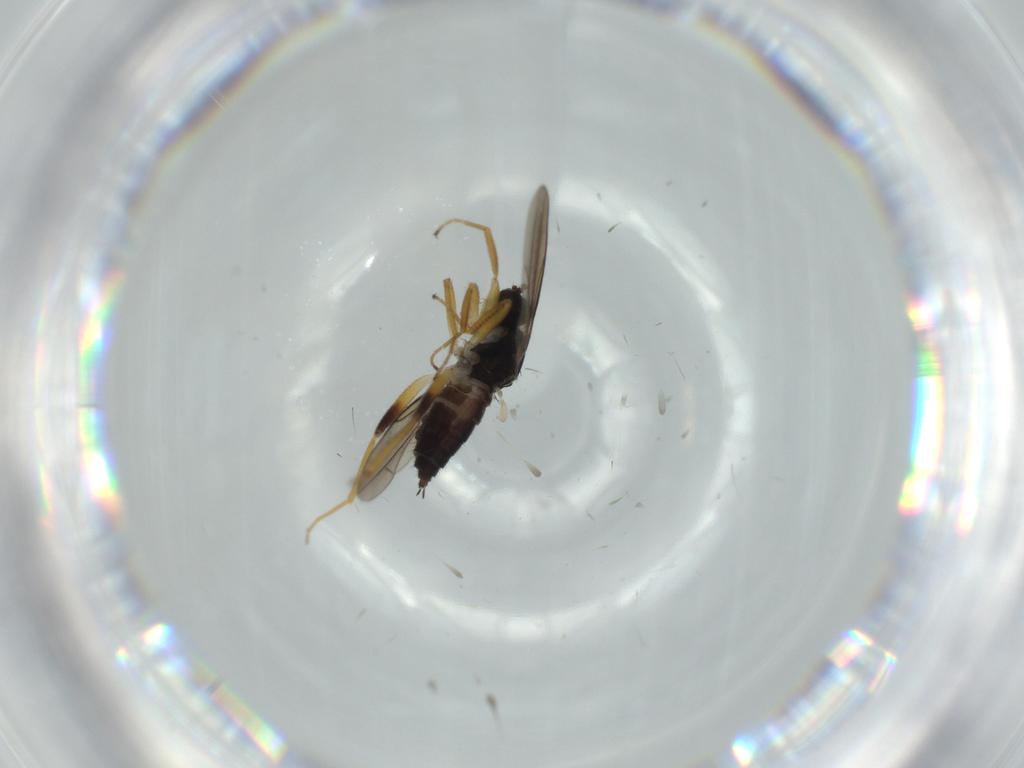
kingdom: Animalia
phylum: Arthropoda
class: Insecta
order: Diptera
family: Hybotidae
